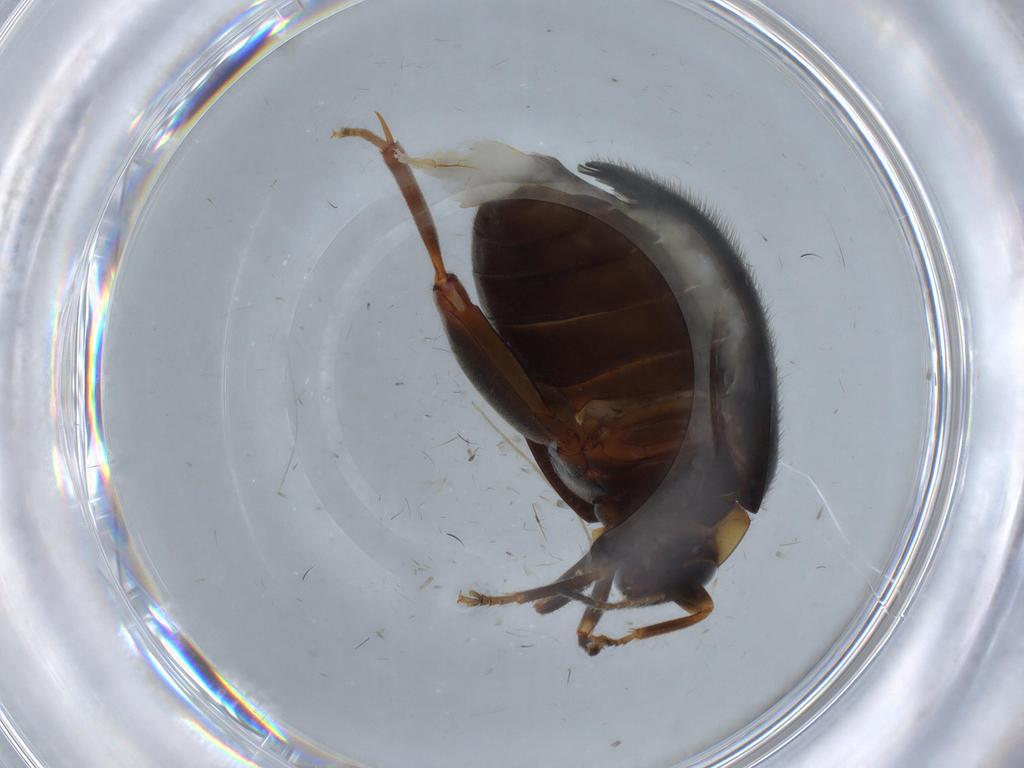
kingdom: Animalia
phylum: Arthropoda
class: Insecta
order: Coleoptera
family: Scirtidae
